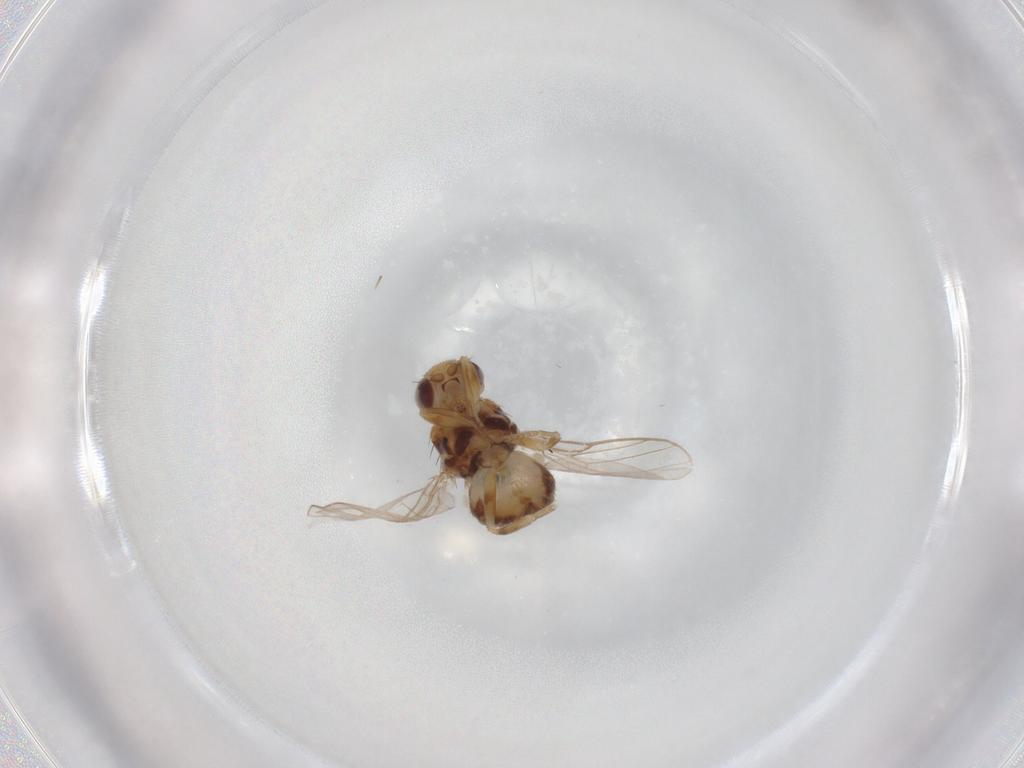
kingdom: Animalia
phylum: Arthropoda
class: Insecta
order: Diptera
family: Chloropidae
